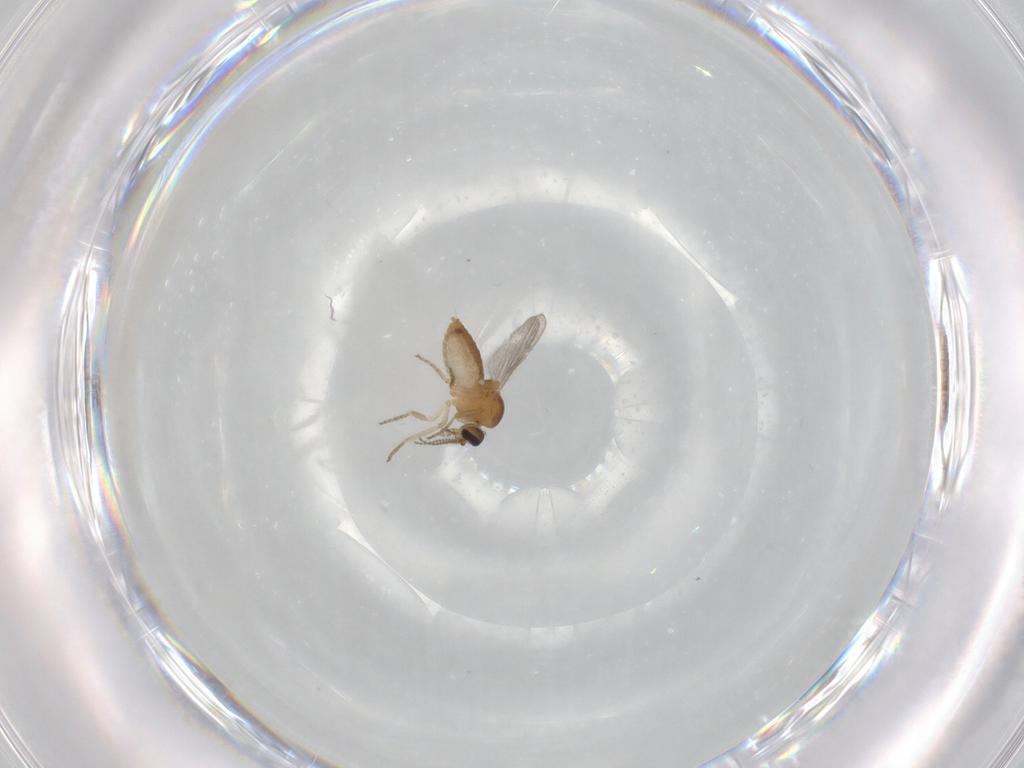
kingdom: Animalia
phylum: Arthropoda
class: Insecta
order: Diptera
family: Ceratopogonidae
